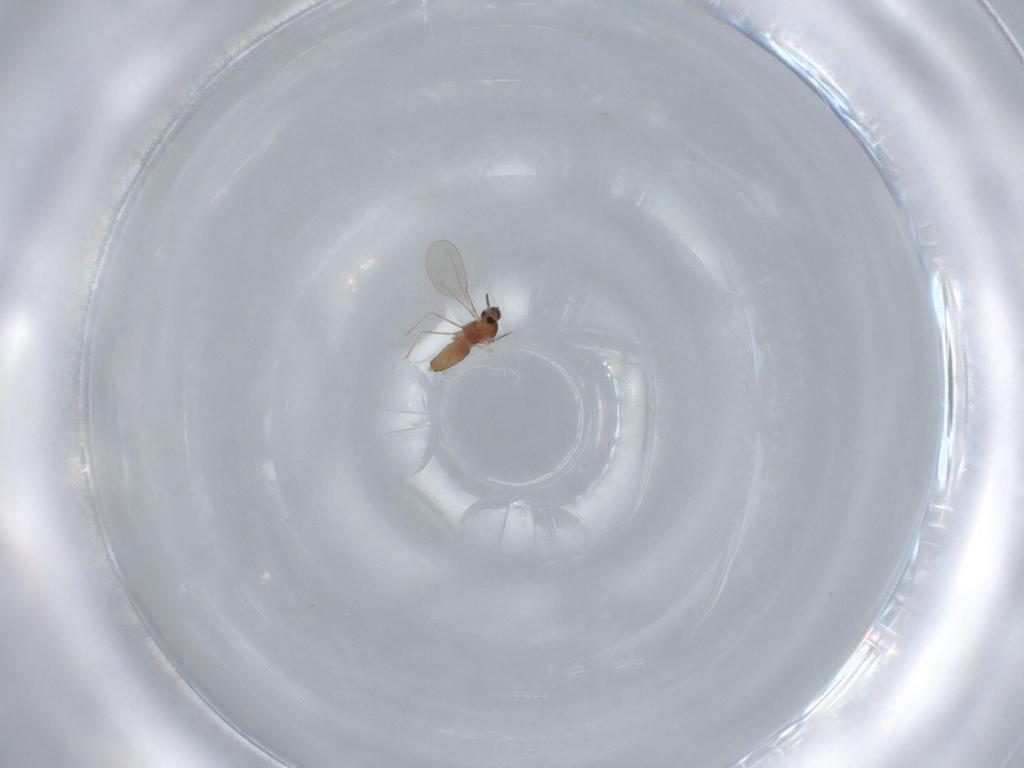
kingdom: Animalia
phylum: Arthropoda
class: Insecta
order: Diptera
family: Cecidomyiidae
